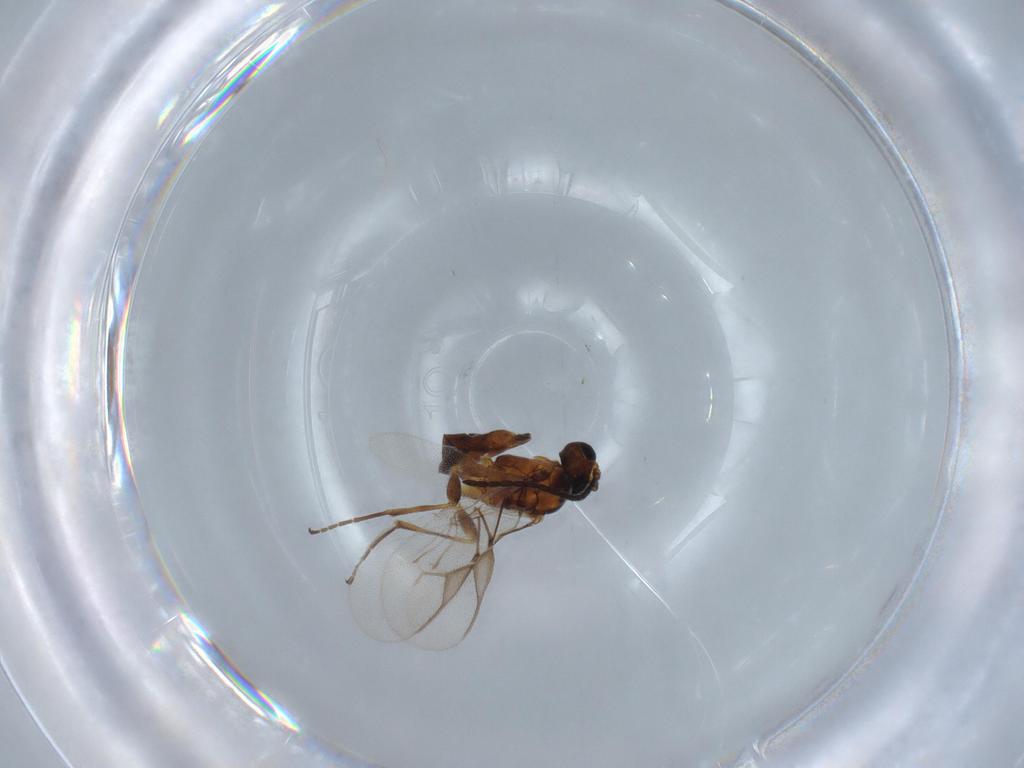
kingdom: Animalia
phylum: Arthropoda
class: Insecta
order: Hymenoptera
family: Braconidae
